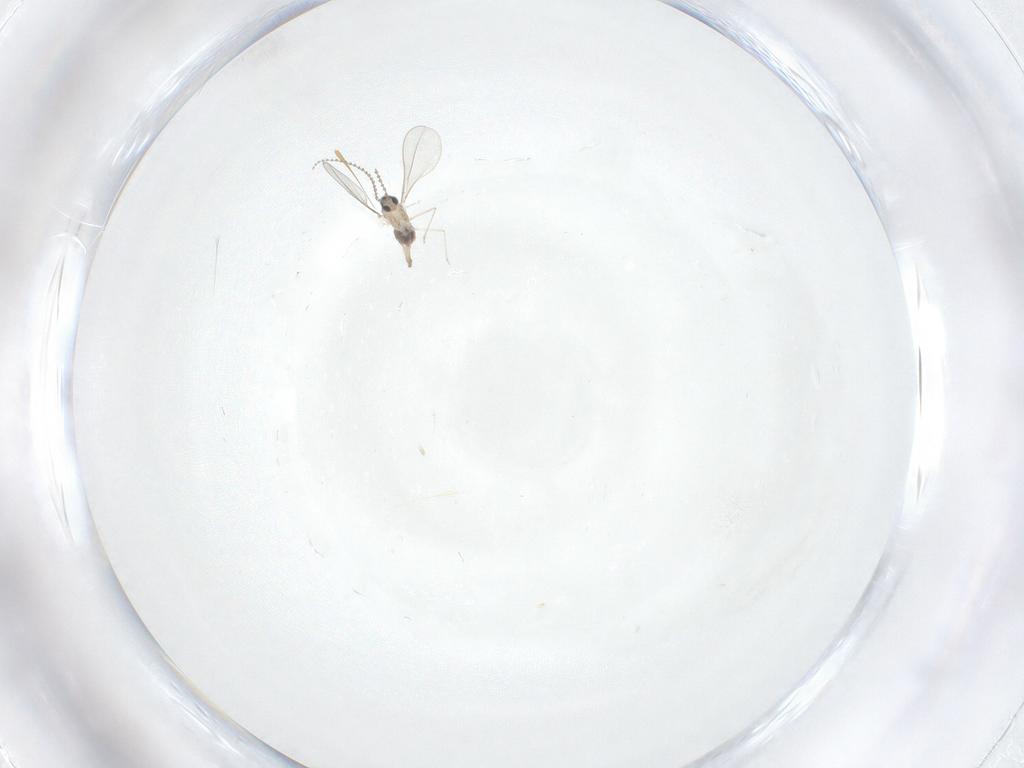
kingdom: Animalia
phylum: Arthropoda
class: Insecta
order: Diptera
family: Cecidomyiidae
